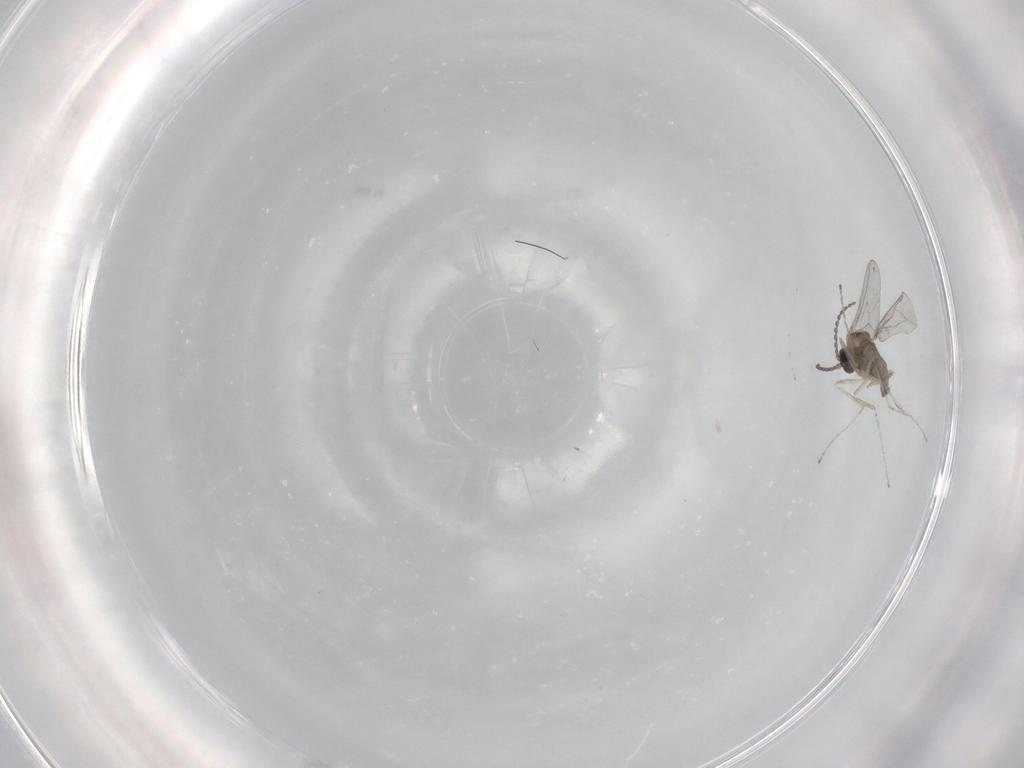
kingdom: Animalia
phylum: Arthropoda
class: Insecta
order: Diptera
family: Cecidomyiidae
